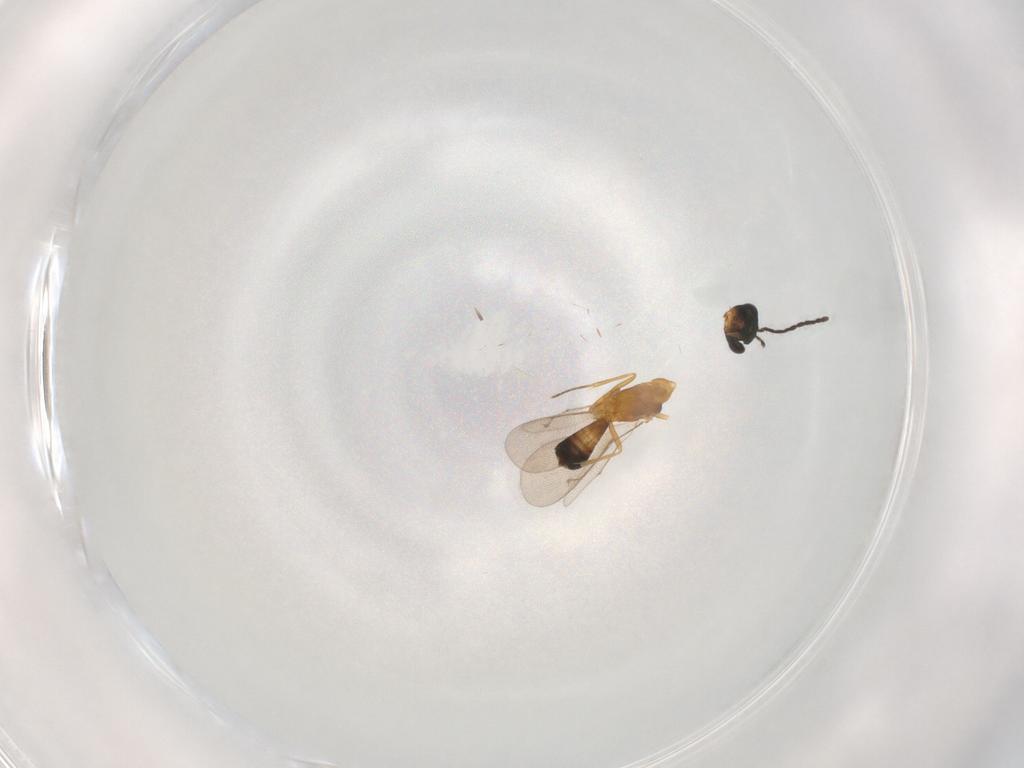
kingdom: Animalia
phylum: Arthropoda
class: Insecta
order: Hymenoptera
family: Eupelmidae
